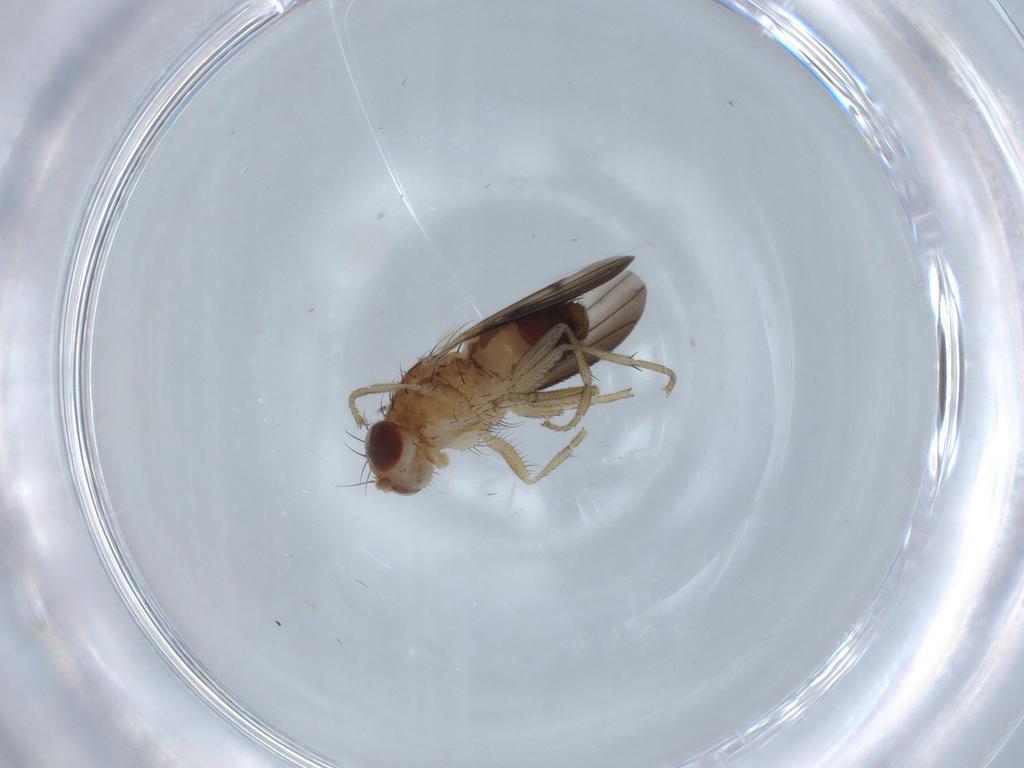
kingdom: Animalia
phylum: Arthropoda
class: Insecta
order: Diptera
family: Heleomyzidae
